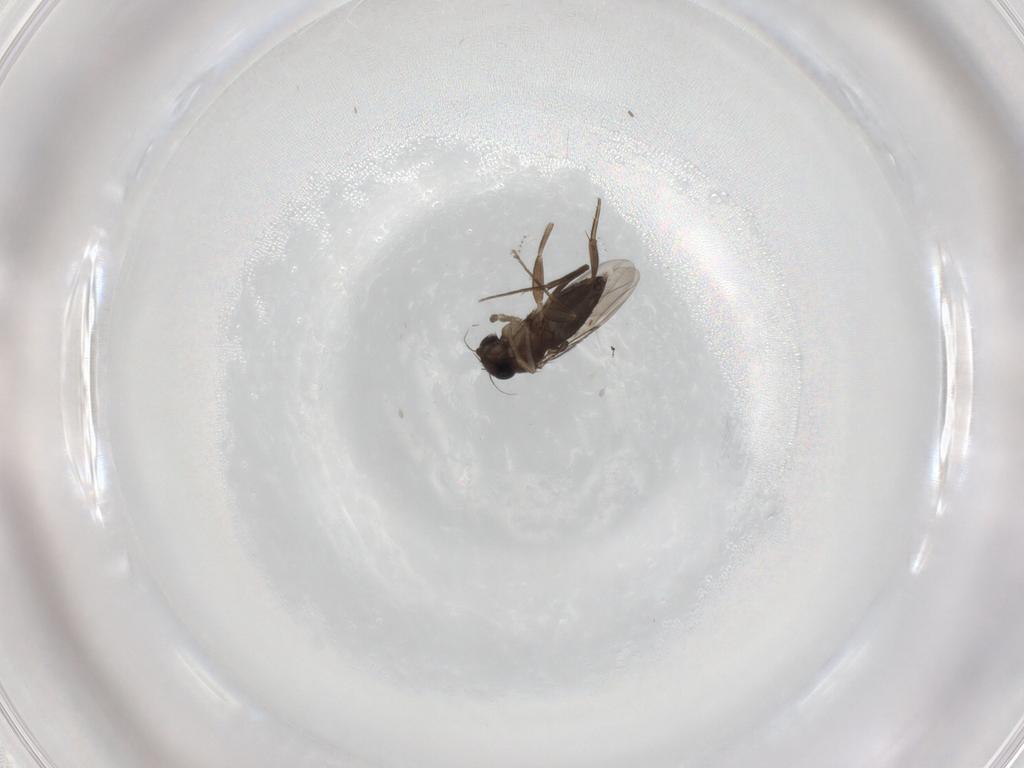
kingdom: Animalia
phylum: Arthropoda
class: Insecta
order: Diptera
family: Phoridae
